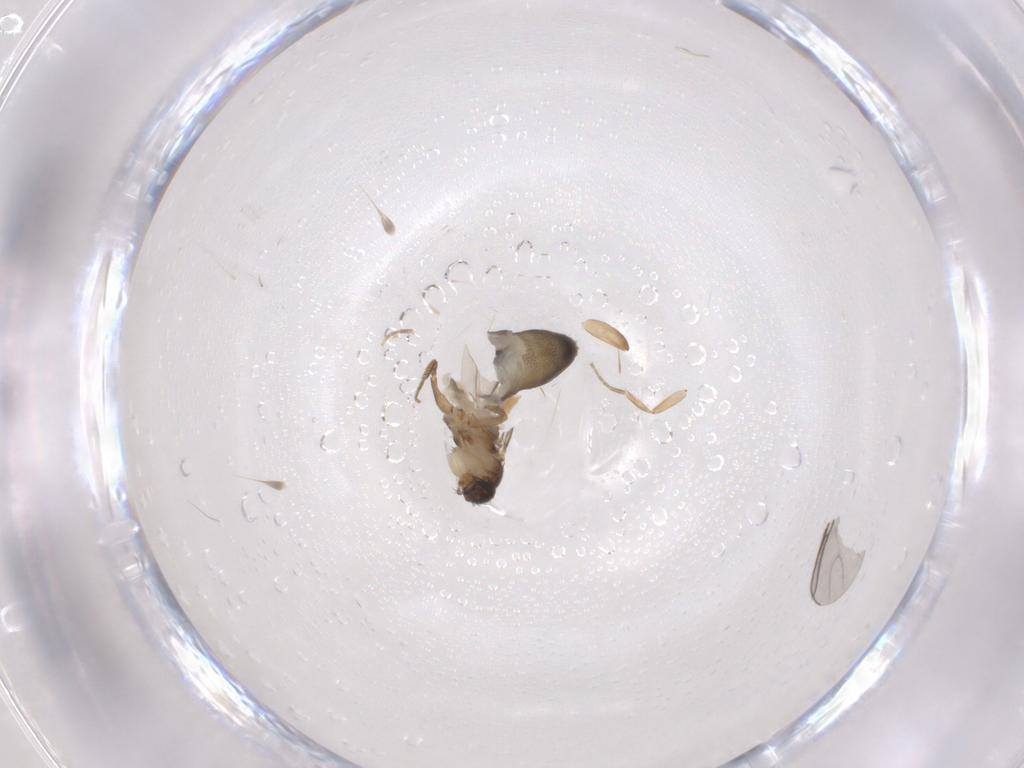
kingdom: Animalia
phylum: Arthropoda
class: Insecta
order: Diptera
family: Phoridae
